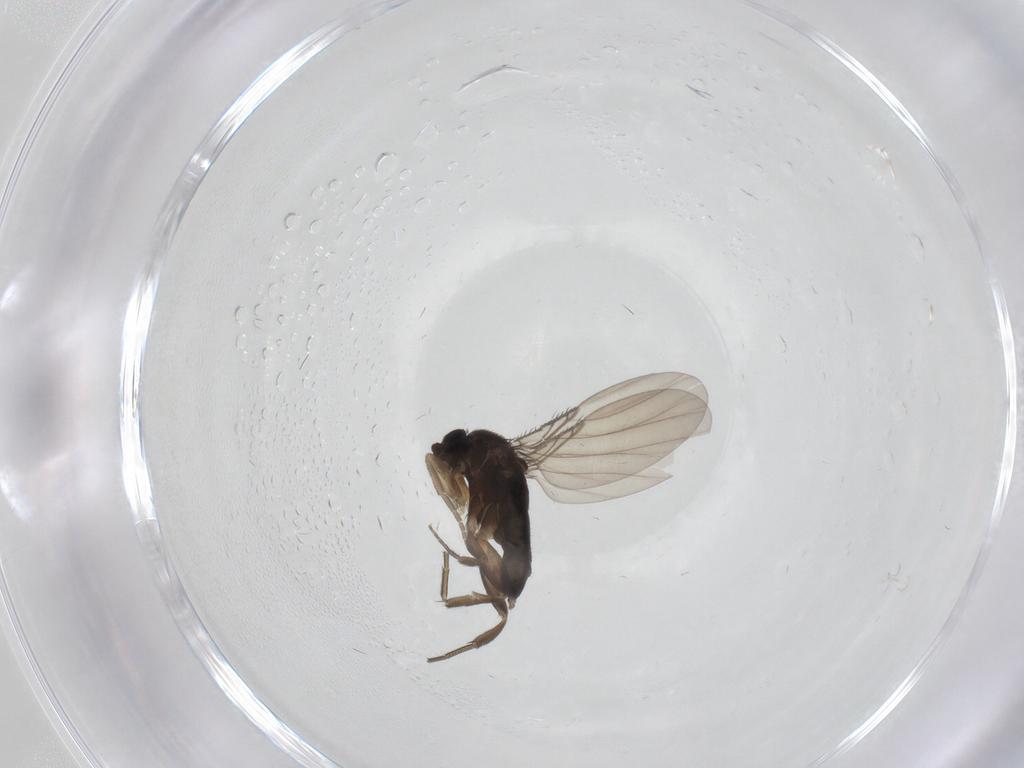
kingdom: Animalia
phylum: Arthropoda
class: Insecta
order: Diptera
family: Phoridae
